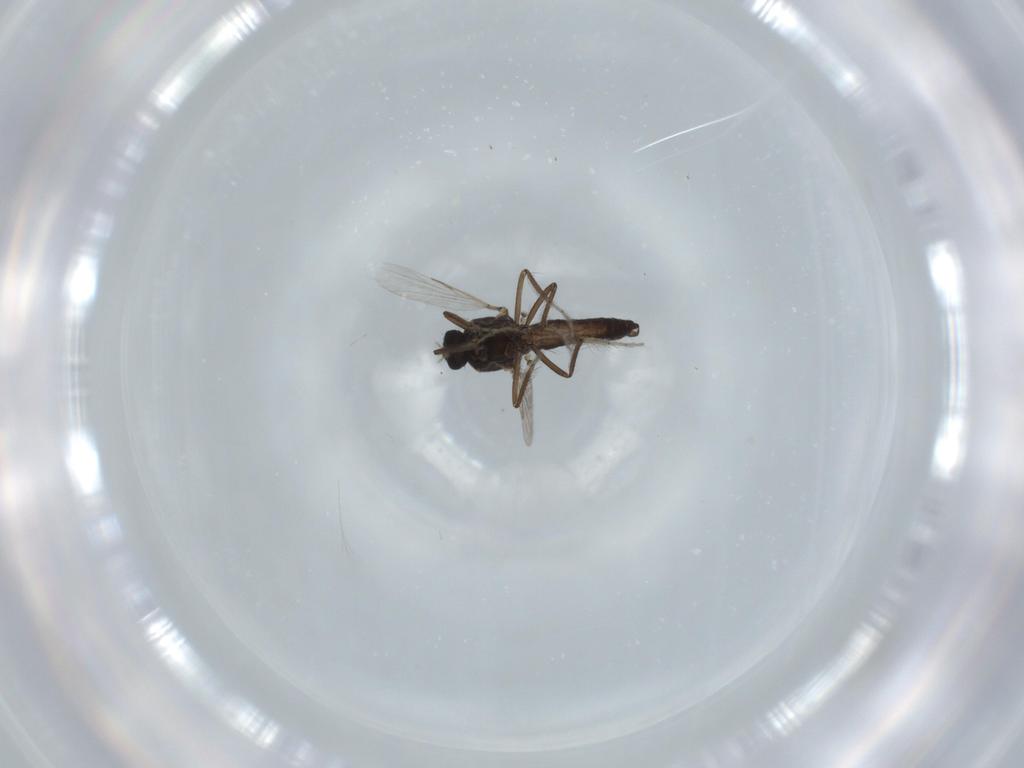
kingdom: Animalia
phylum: Arthropoda
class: Insecta
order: Diptera
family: Ceratopogonidae
